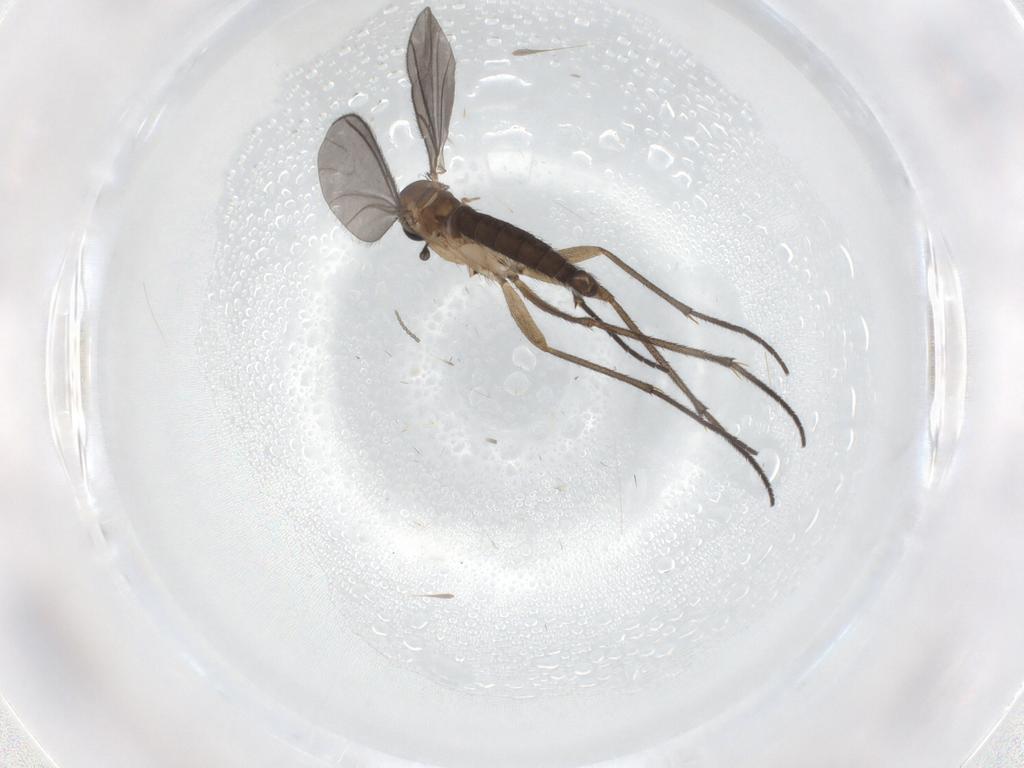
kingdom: Animalia
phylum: Arthropoda
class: Insecta
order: Diptera
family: Sciaridae
